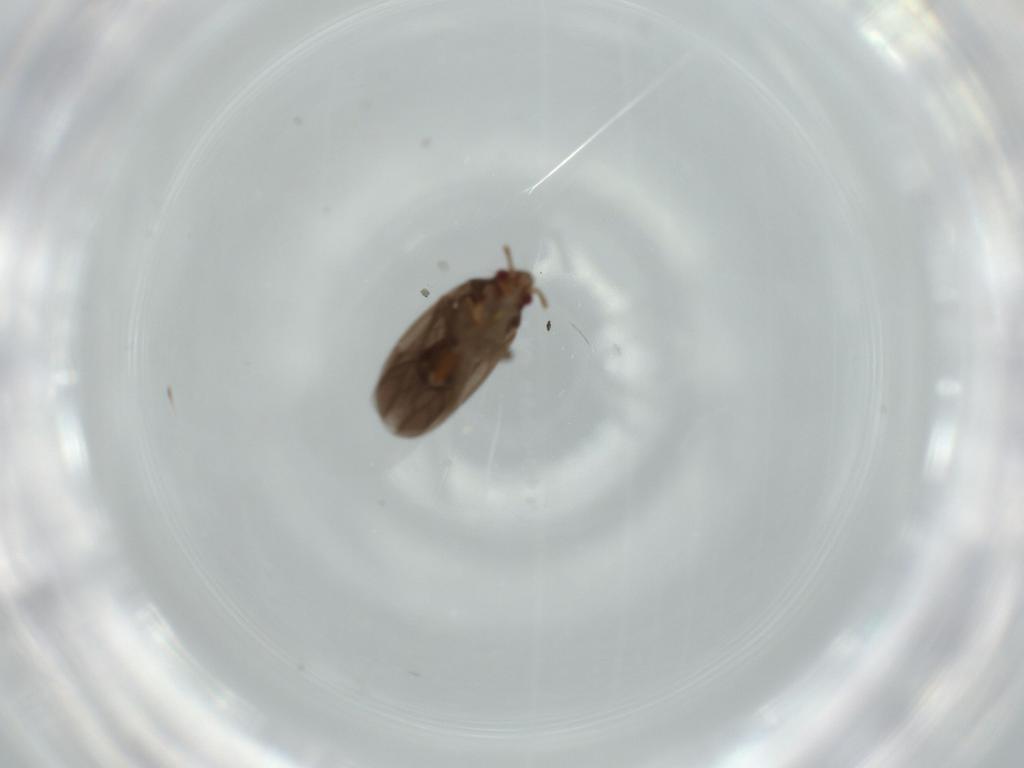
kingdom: Animalia
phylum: Arthropoda
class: Insecta
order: Hemiptera
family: Ceratocombidae
